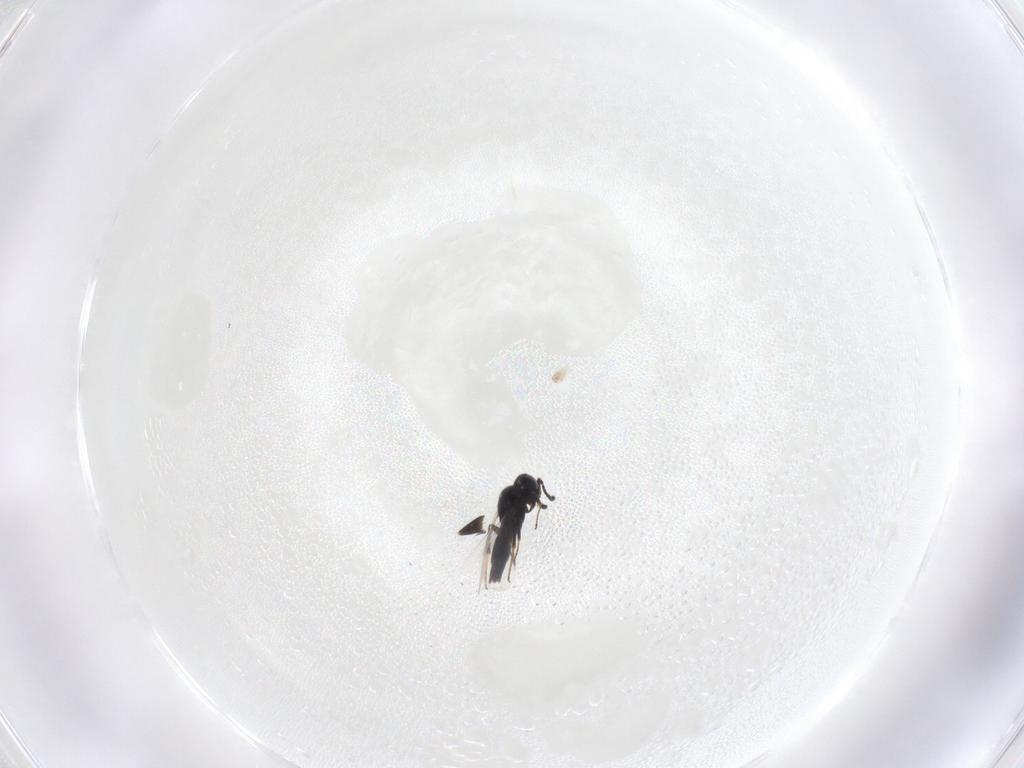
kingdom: Animalia
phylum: Arthropoda
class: Insecta
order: Hymenoptera
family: Scelionidae
